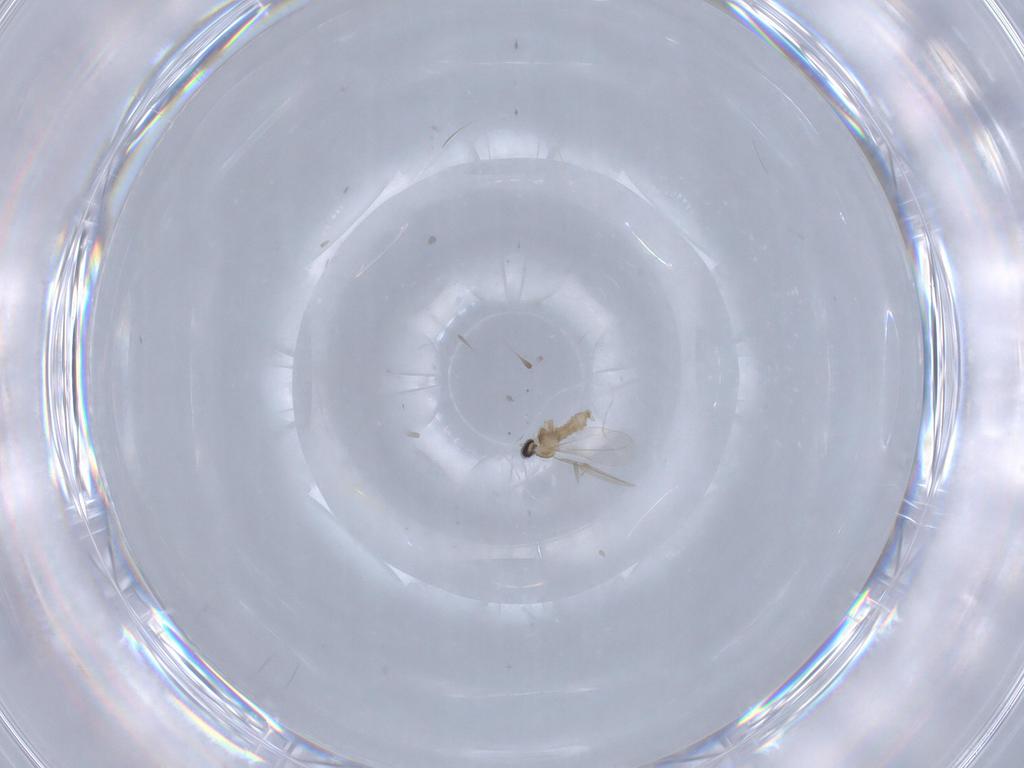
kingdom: Animalia
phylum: Arthropoda
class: Insecta
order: Diptera
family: Cecidomyiidae
